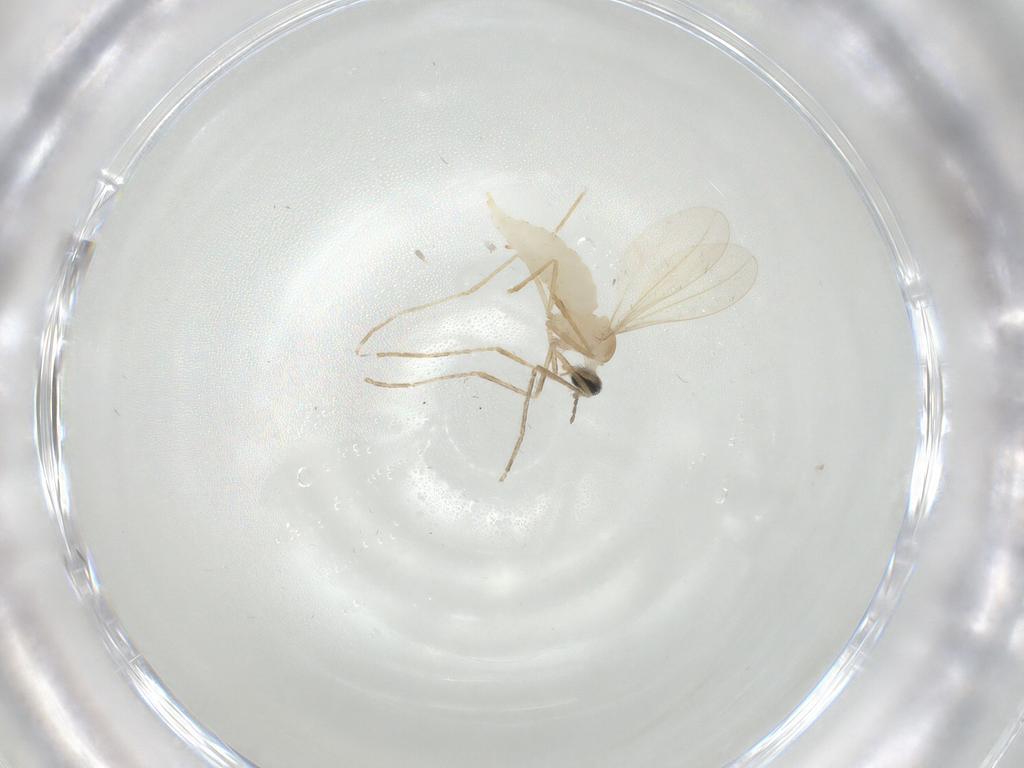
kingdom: Animalia
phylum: Arthropoda
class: Insecta
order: Diptera
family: Cecidomyiidae
